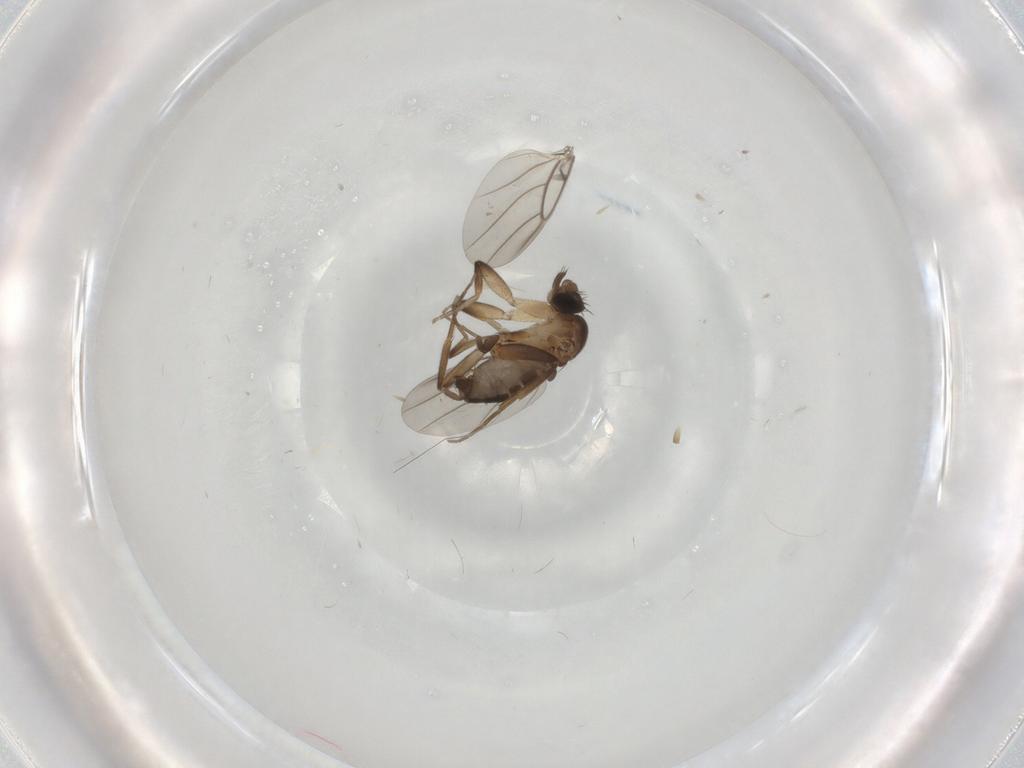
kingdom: Animalia
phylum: Arthropoda
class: Insecta
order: Diptera
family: Phoridae
